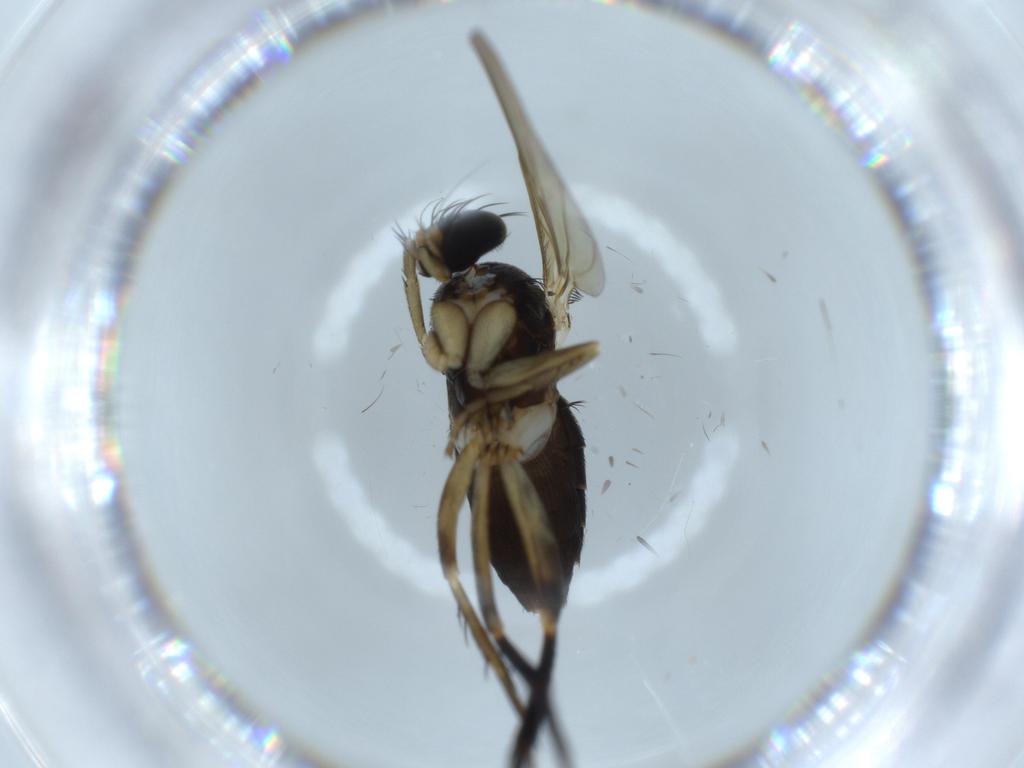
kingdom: Animalia
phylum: Arthropoda
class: Insecta
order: Diptera
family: Phoridae
